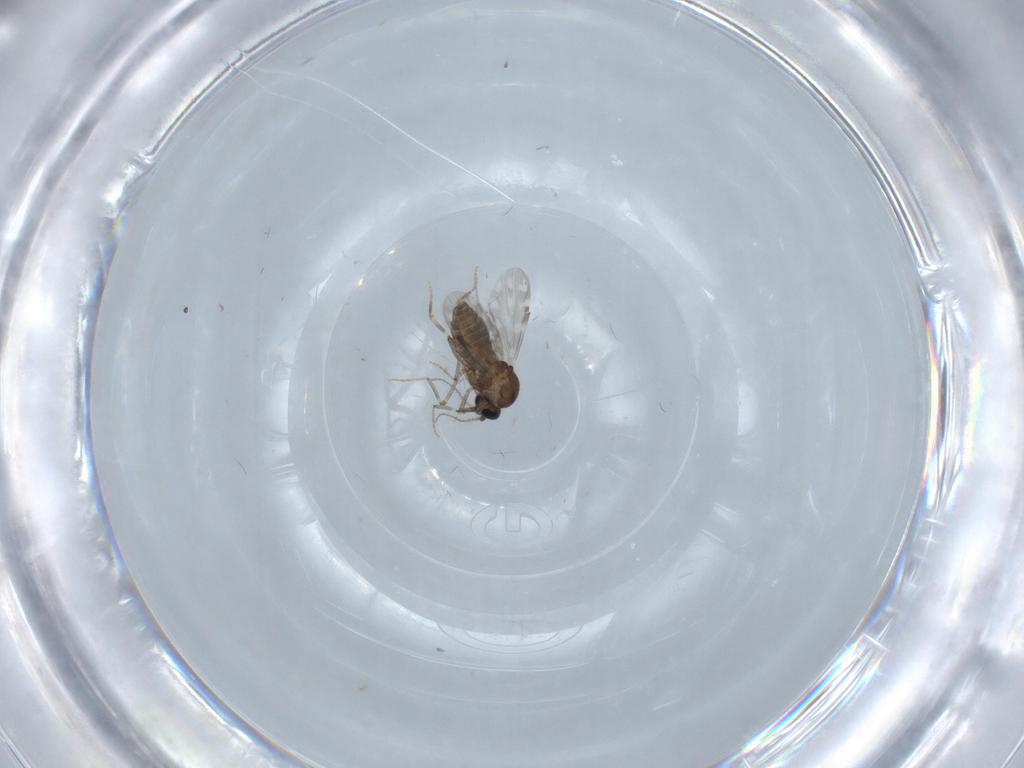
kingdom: Animalia
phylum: Arthropoda
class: Insecta
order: Diptera
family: Ceratopogonidae
